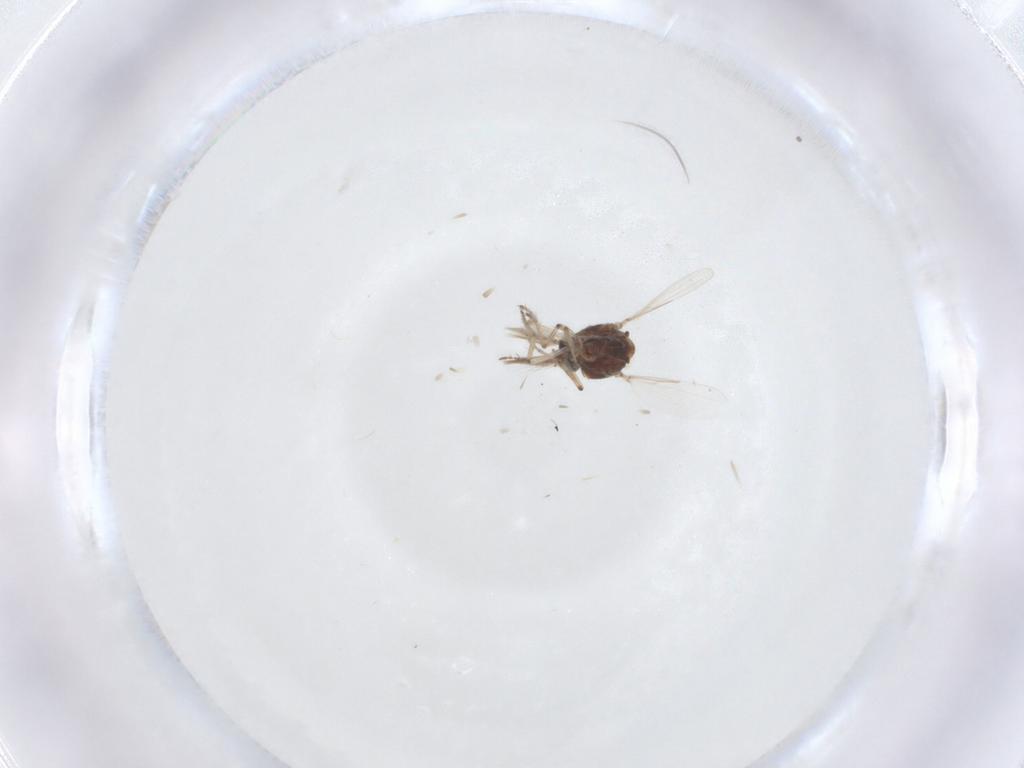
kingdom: Animalia
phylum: Arthropoda
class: Insecta
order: Diptera
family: Ceratopogonidae
